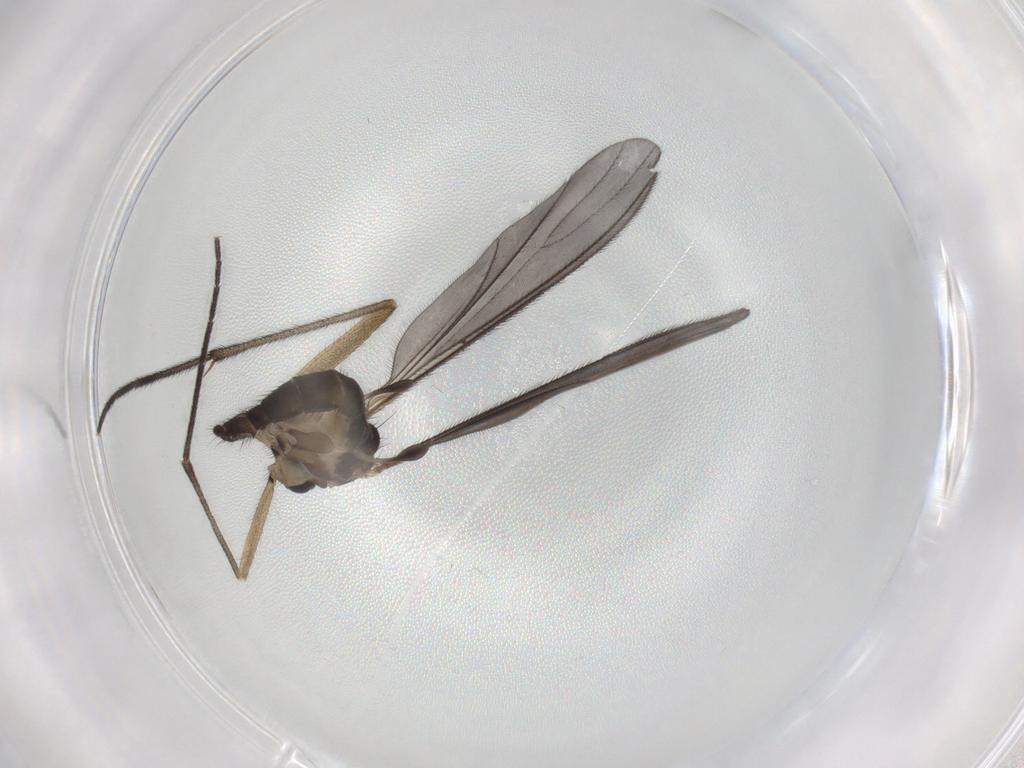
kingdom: Animalia
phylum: Arthropoda
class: Insecta
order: Diptera
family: Sciaridae
